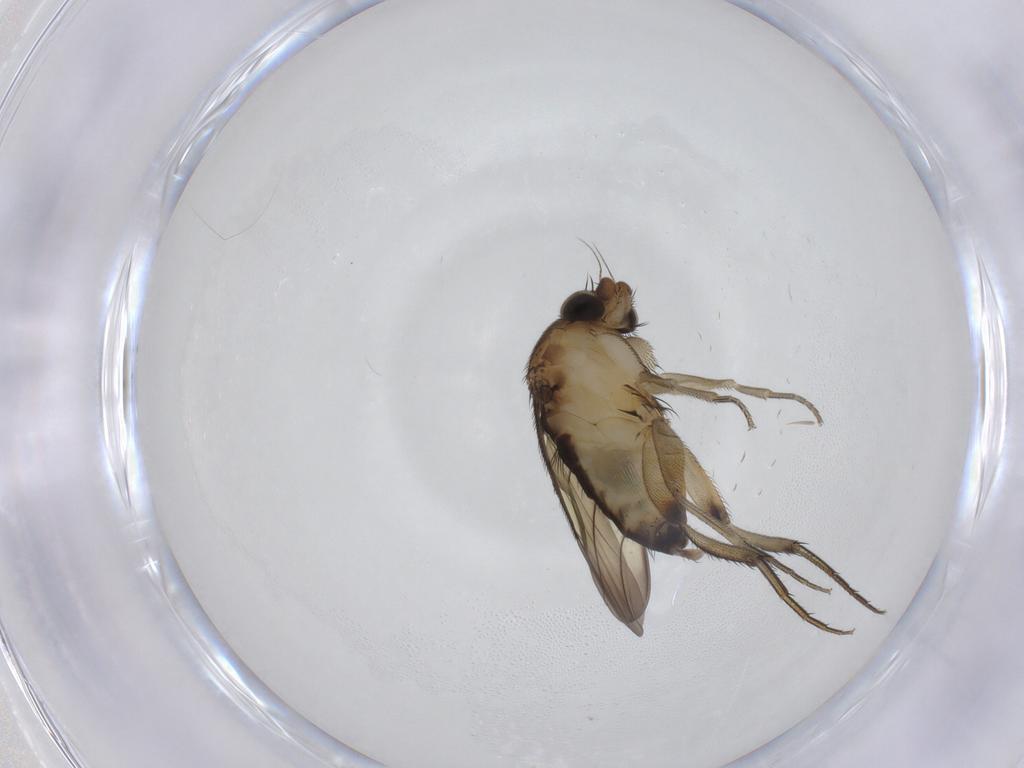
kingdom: Animalia
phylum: Arthropoda
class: Insecta
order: Diptera
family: Phoridae
